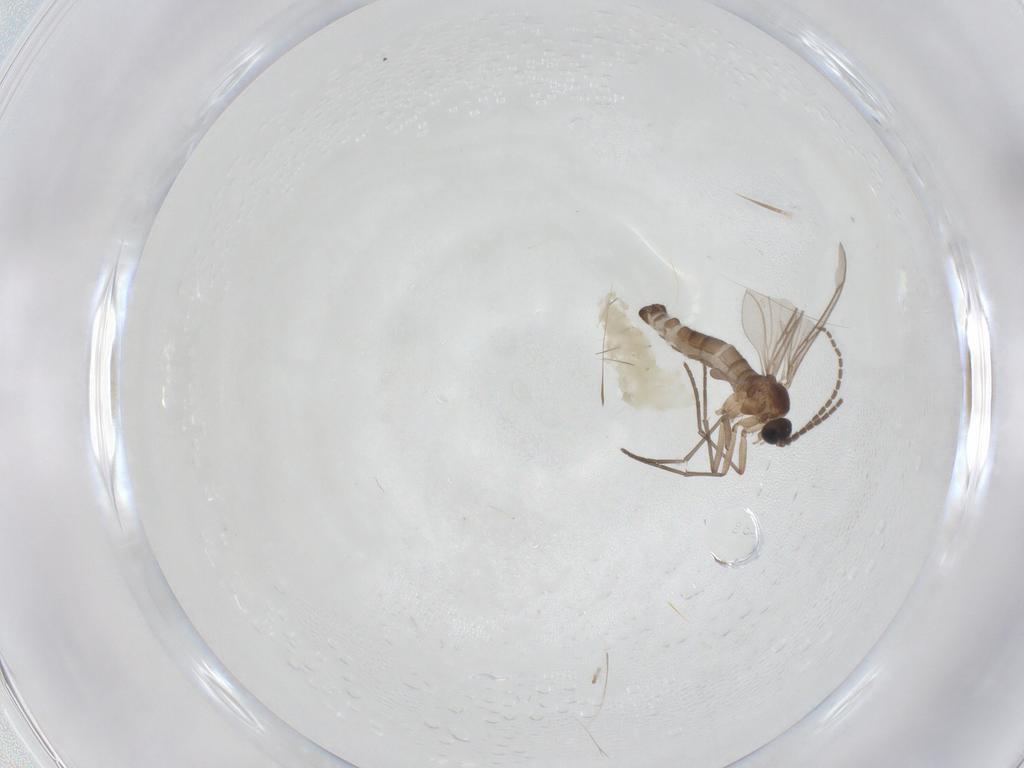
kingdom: Animalia
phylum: Arthropoda
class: Insecta
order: Diptera
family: Sciaridae
